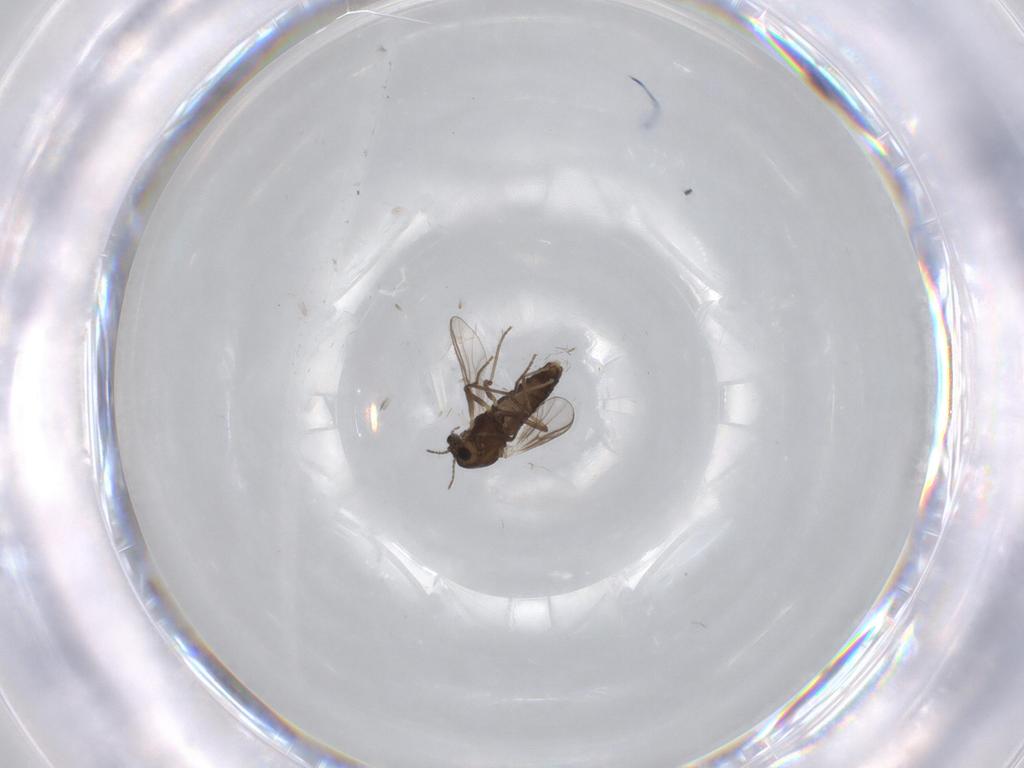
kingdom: Animalia
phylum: Arthropoda
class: Insecta
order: Diptera
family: Chironomidae
